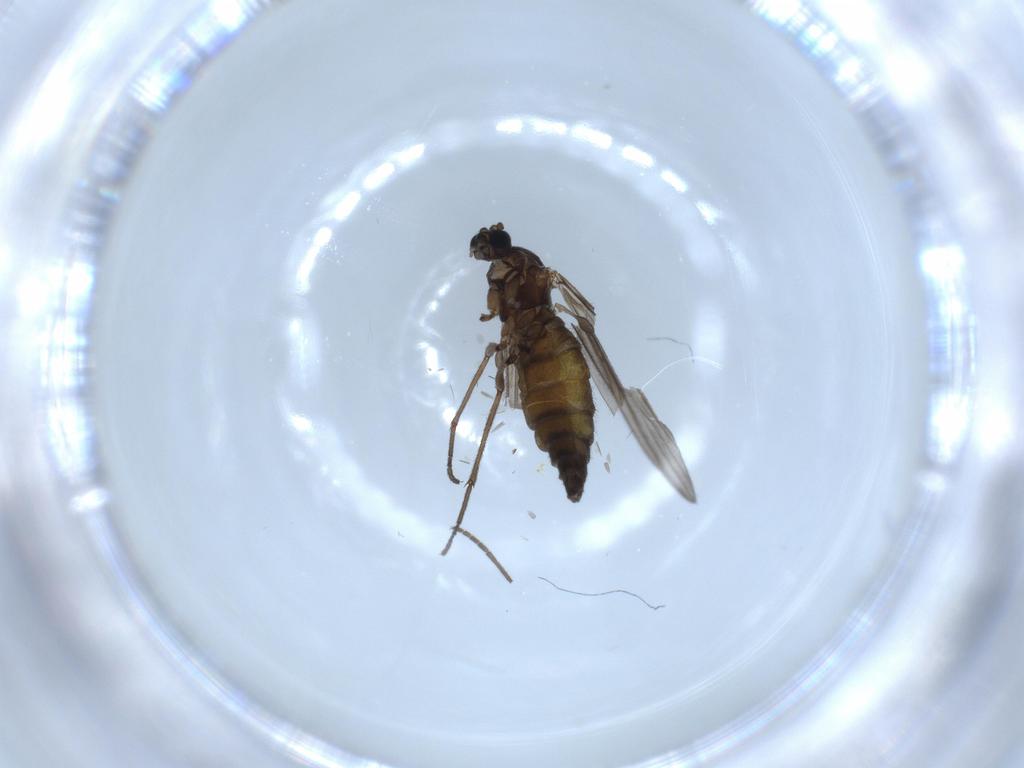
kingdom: Animalia
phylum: Arthropoda
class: Insecta
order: Diptera
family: Sciaridae
